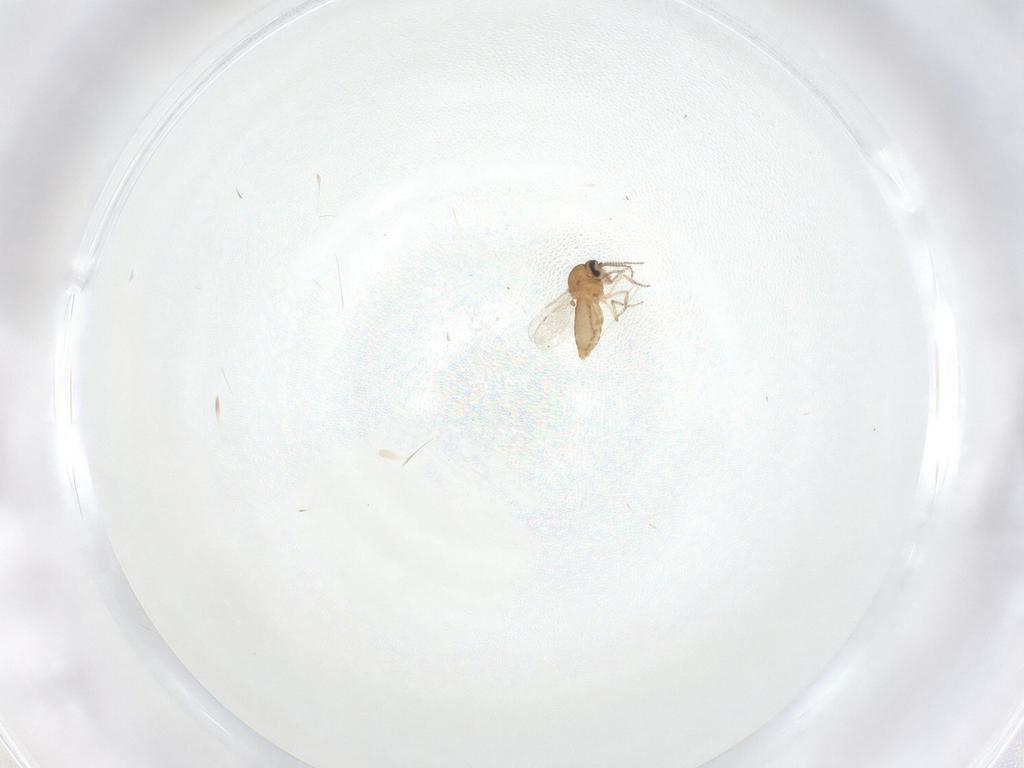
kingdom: Animalia
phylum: Arthropoda
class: Insecta
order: Diptera
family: Ceratopogonidae
